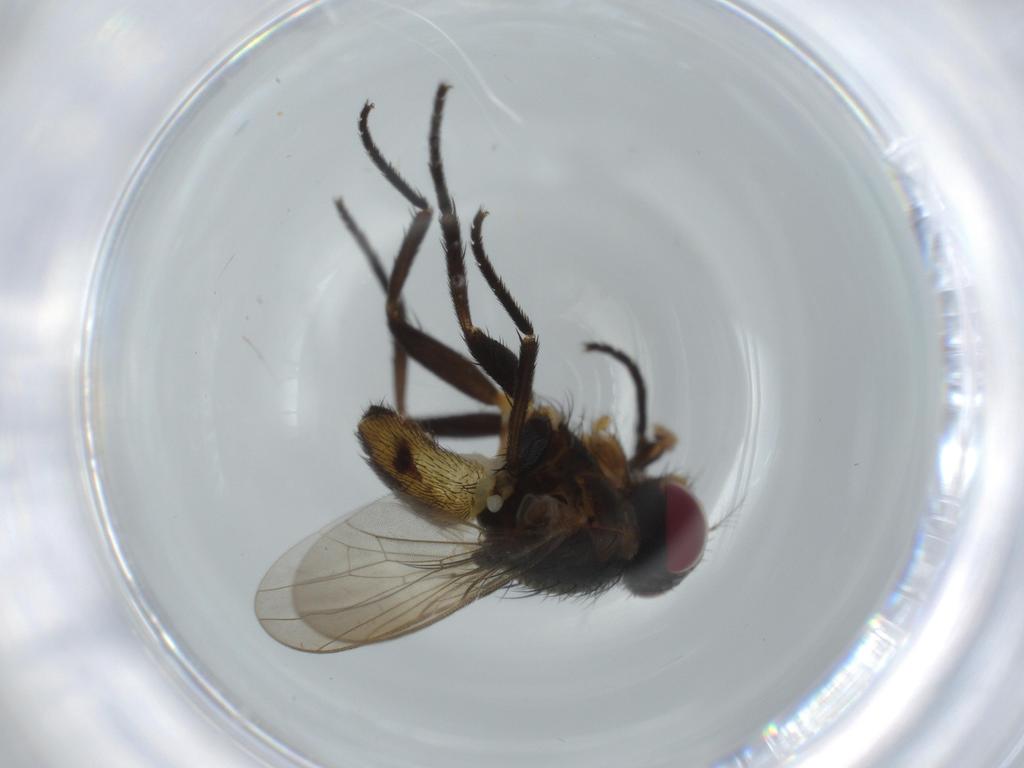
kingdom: Animalia
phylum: Arthropoda
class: Insecta
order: Diptera
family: Anthomyiidae
